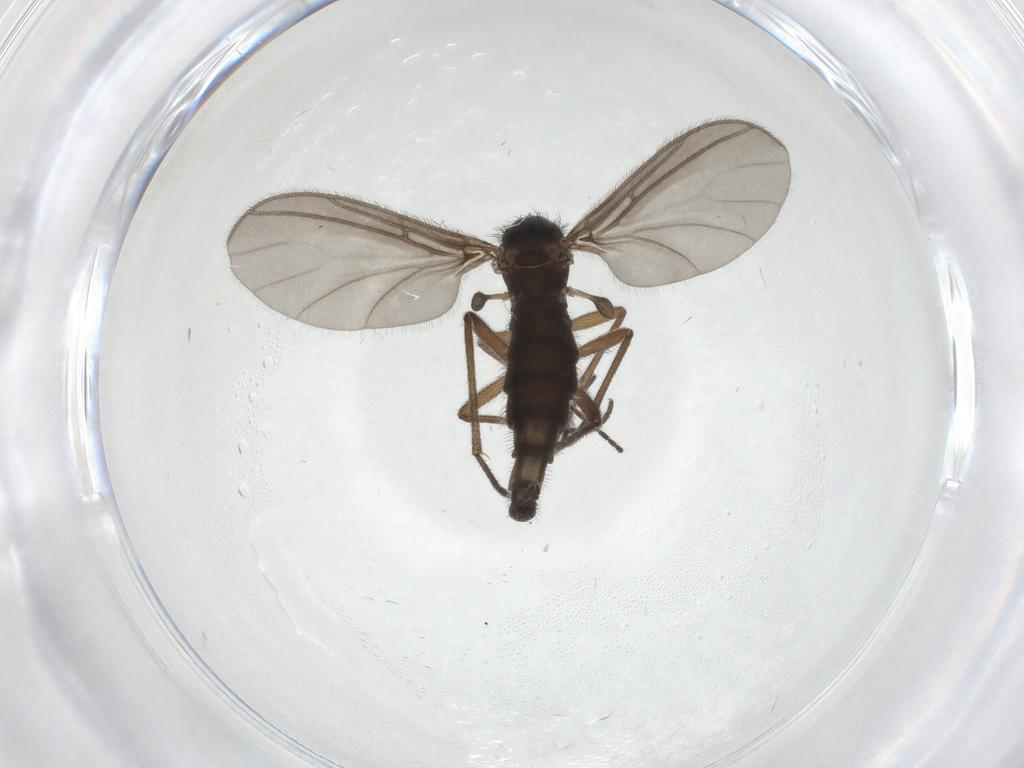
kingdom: Animalia
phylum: Arthropoda
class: Insecta
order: Diptera
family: Sciaridae
